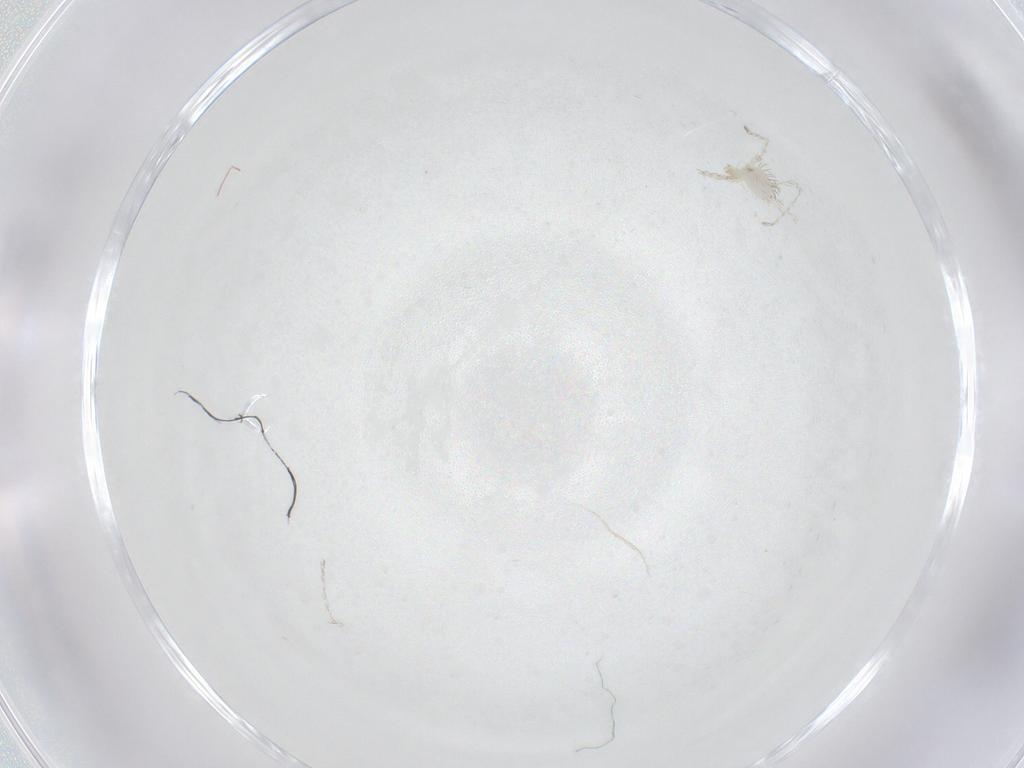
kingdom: Animalia
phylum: Arthropoda
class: Arachnida
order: Trombidiformes
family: Erythraeidae
